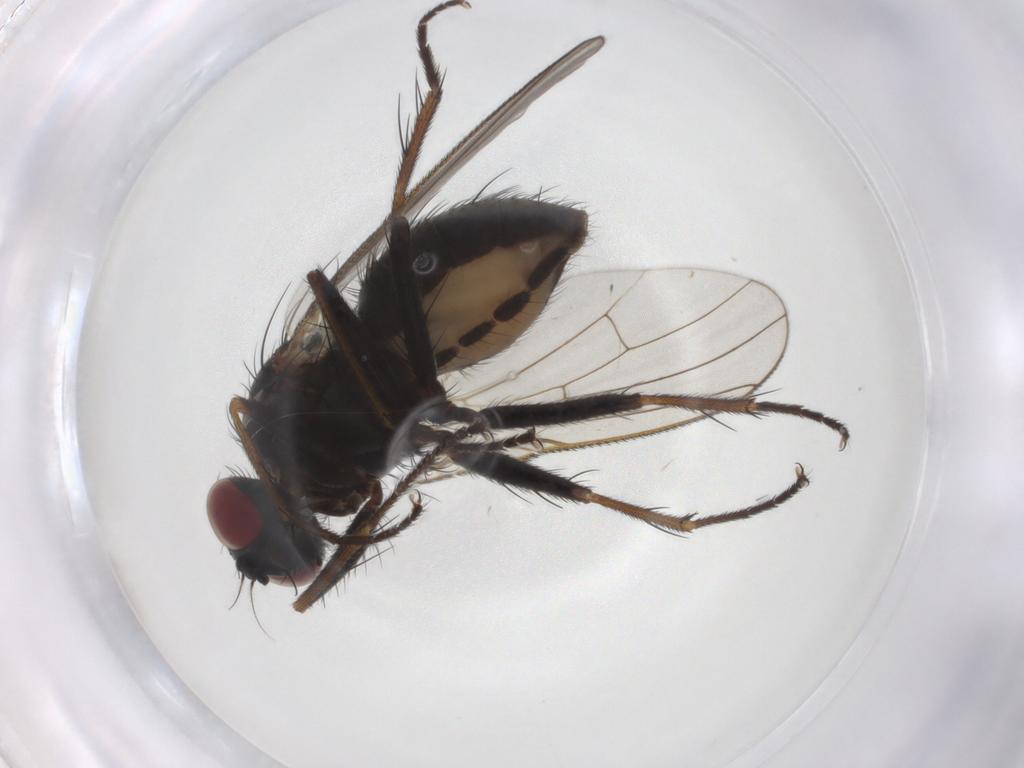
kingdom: Animalia
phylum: Arthropoda
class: Insecta
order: Diptera
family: Muscidae
